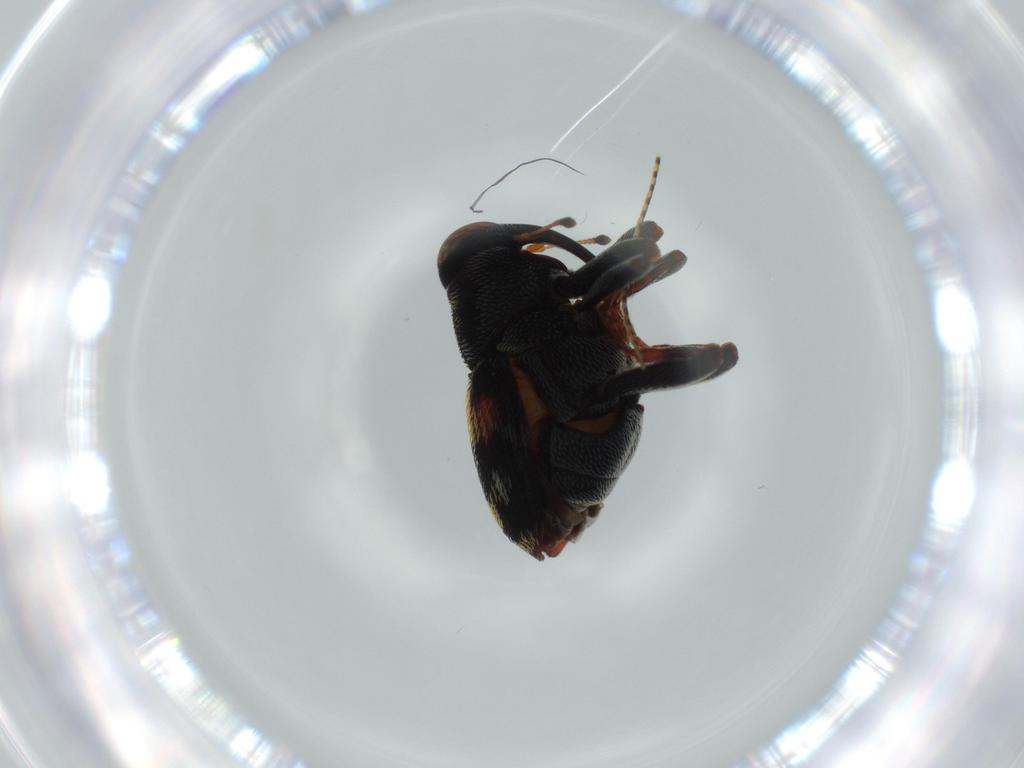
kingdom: Animalia
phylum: Arthropoda
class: Insecta
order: Coleoptera
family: Curculionidae
